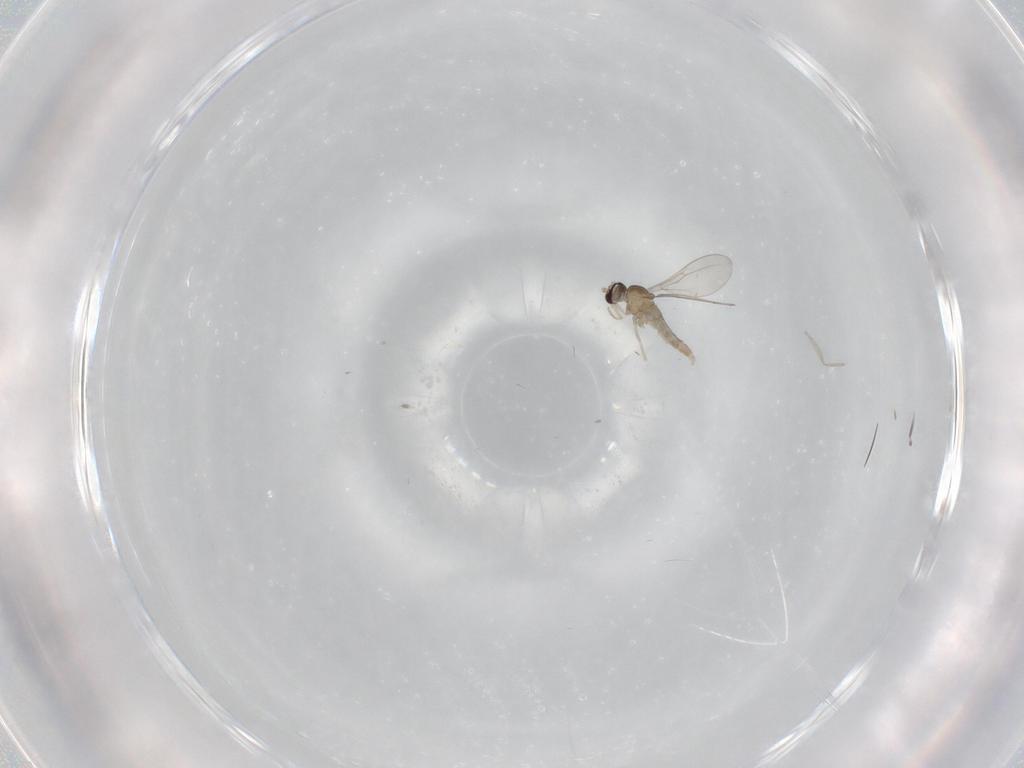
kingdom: Animalia
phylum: Arthropoda
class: Insecta
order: Diptera
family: Cecidomyiidae
